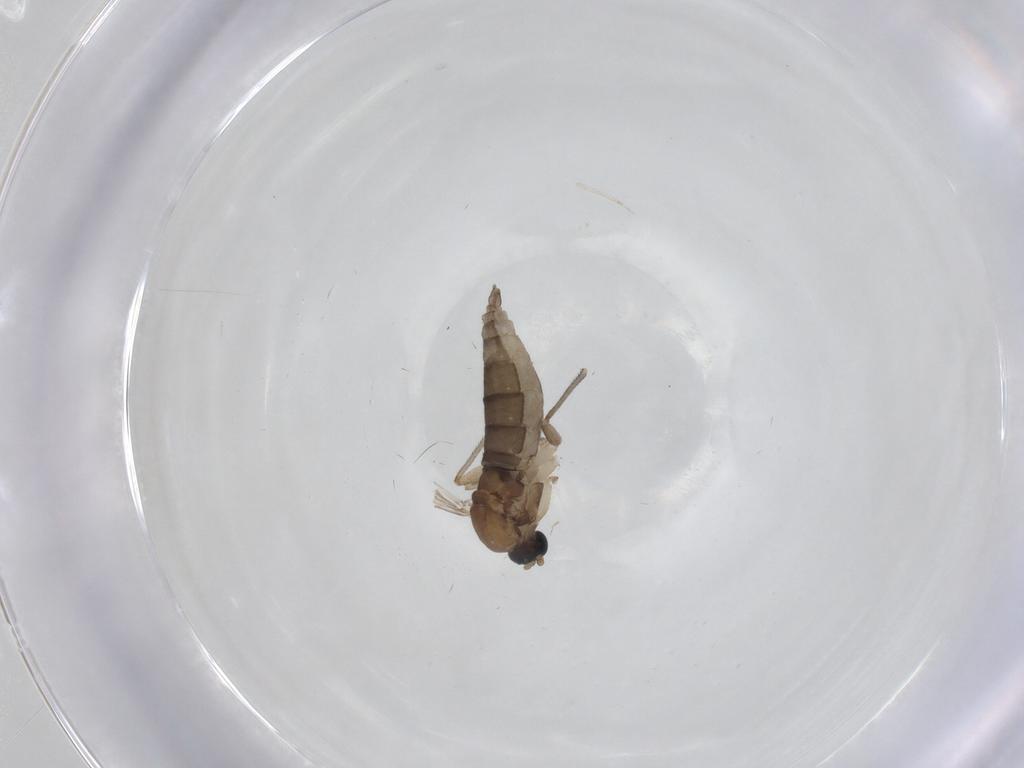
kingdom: Animalia
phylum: Arthropoda
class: Insecta
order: Diptera
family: Sciaridae
